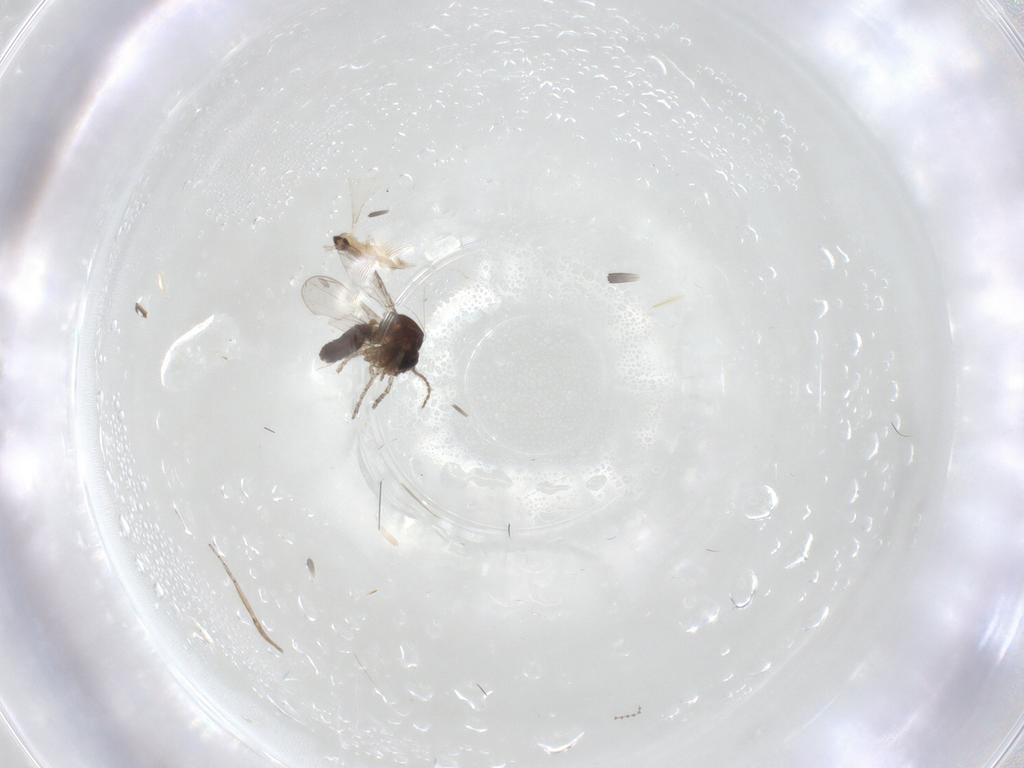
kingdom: Animalia
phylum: Arthropoda
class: Insecta
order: Diptera
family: Ceratopogonidae
